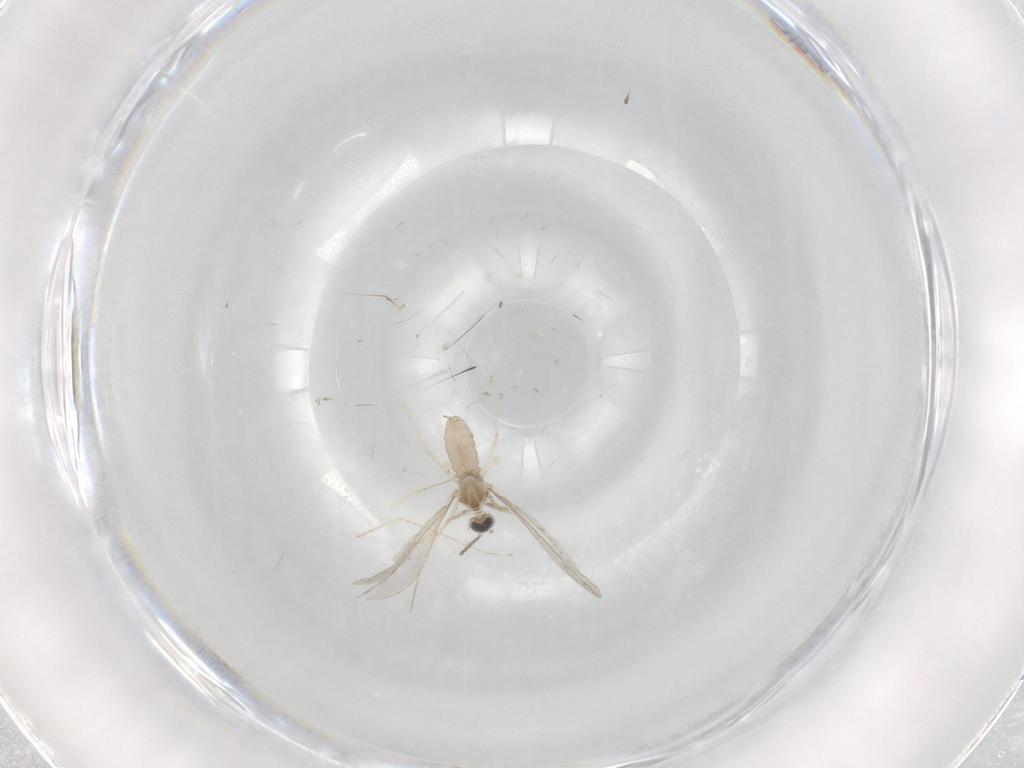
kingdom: Animalia
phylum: Arthropoda
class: Insecta
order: Diptera
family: Cecidomyiidae
